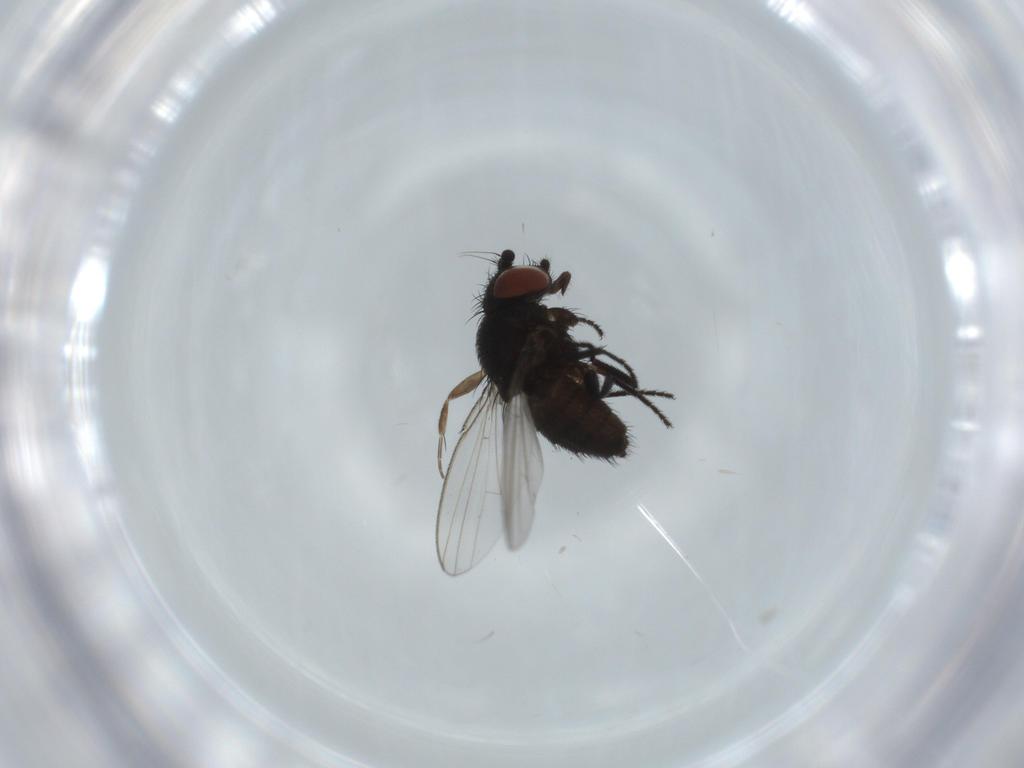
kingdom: Animalia
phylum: Arthropoda
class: Insecta
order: Diptera
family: Milichiidae
